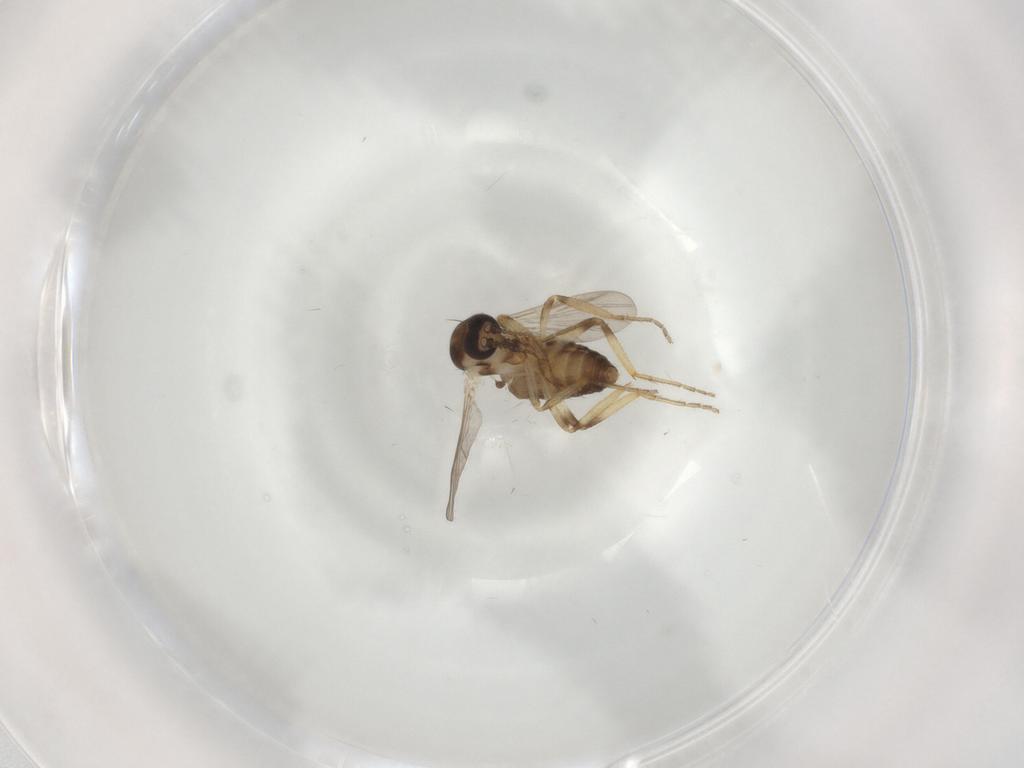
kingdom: Animalia
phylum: Arthropoda
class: Insecta
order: Diptera
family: Ceratopogonidae
